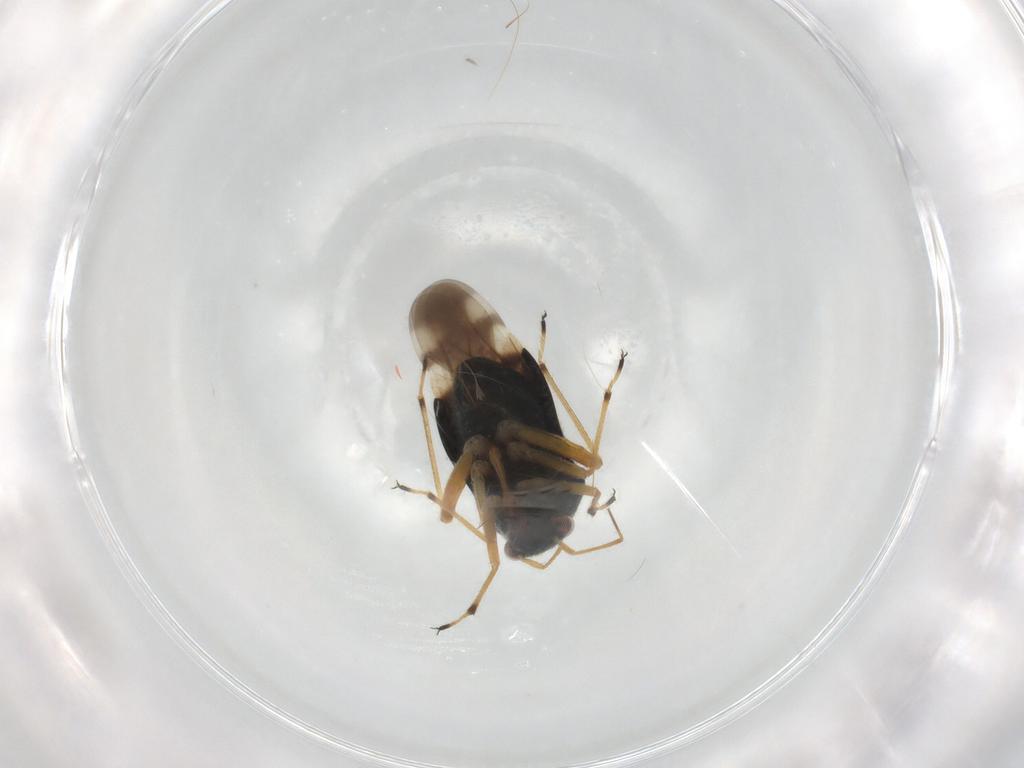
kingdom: Animalia
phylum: Arthropoda
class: Insecta
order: Hemiptera
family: Miridae
